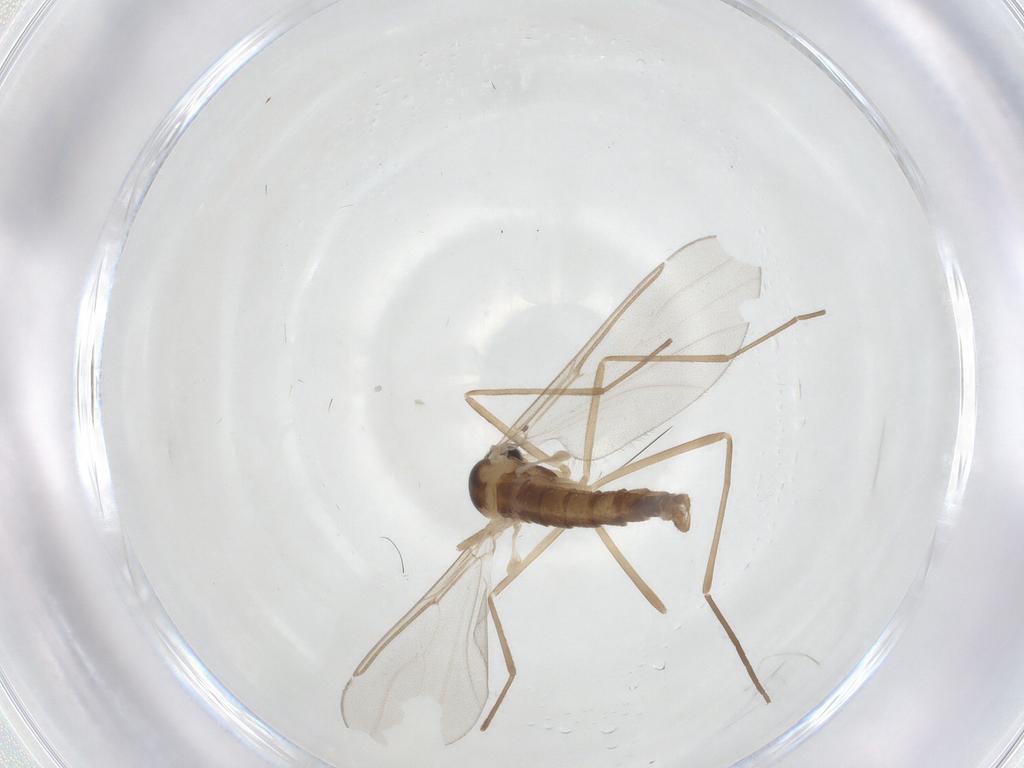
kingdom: Animalia
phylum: Arthropoda
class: Insecta
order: Diptera
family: Cecidomyiidae
